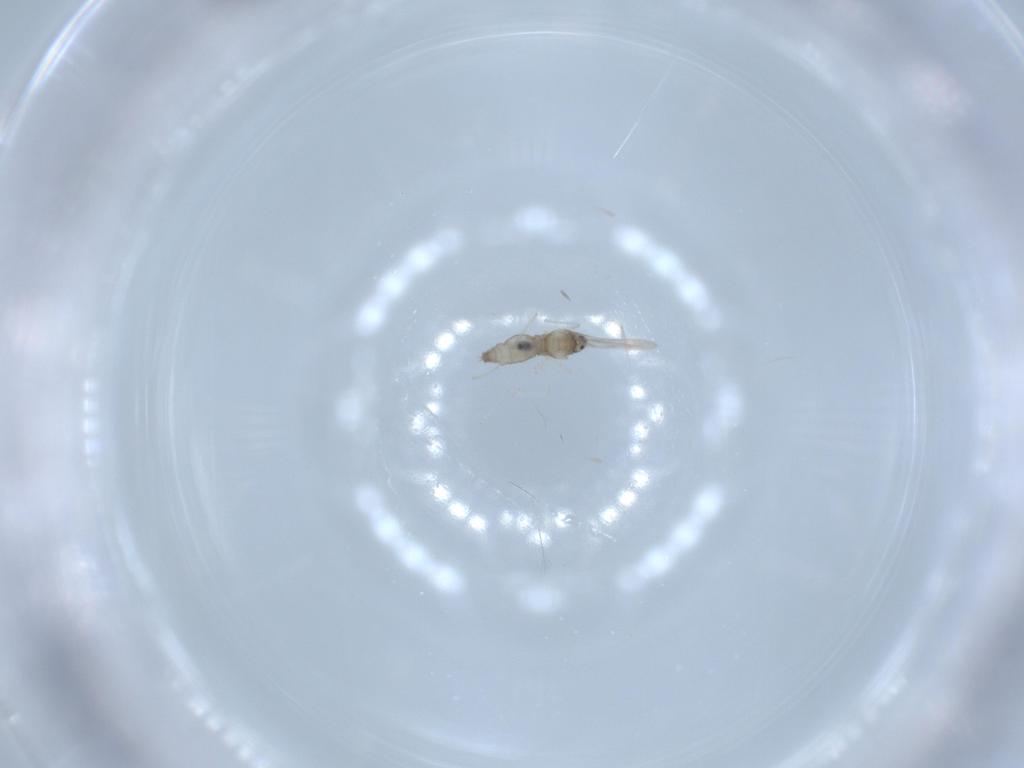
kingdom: Animalia
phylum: Arthropoda
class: Insecta
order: Diptera
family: Cecidomyiidae
